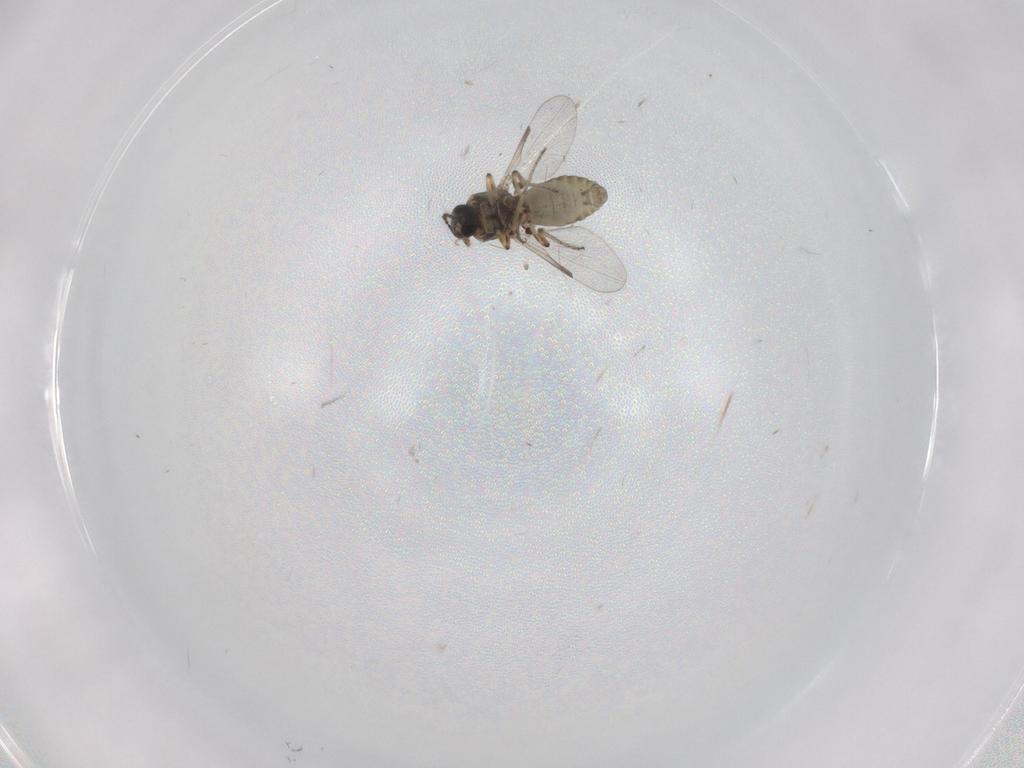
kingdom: Animalia
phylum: Arthropoda
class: Insecta
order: Diptera
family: Ceratopogonidae
